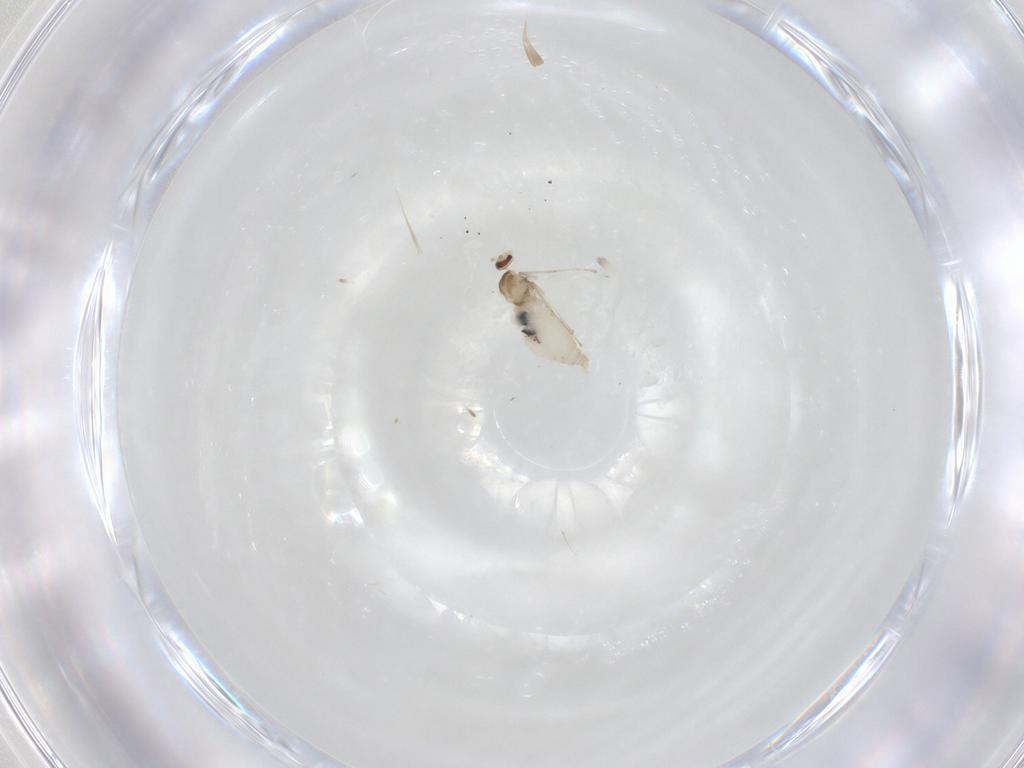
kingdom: Animalia
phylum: Arthropoda
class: Insecta
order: Diptera
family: Cecidomyiidae
